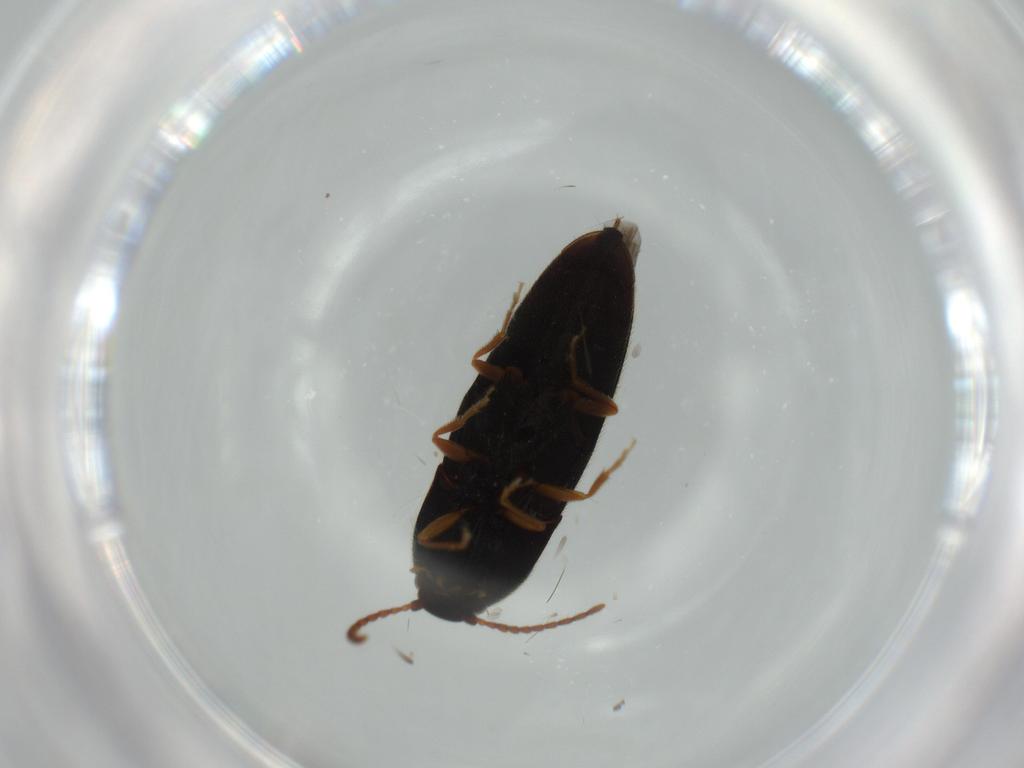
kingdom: Animalia
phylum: Arthropoda
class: Insecta
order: Coleoptera
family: Staphylinidae
